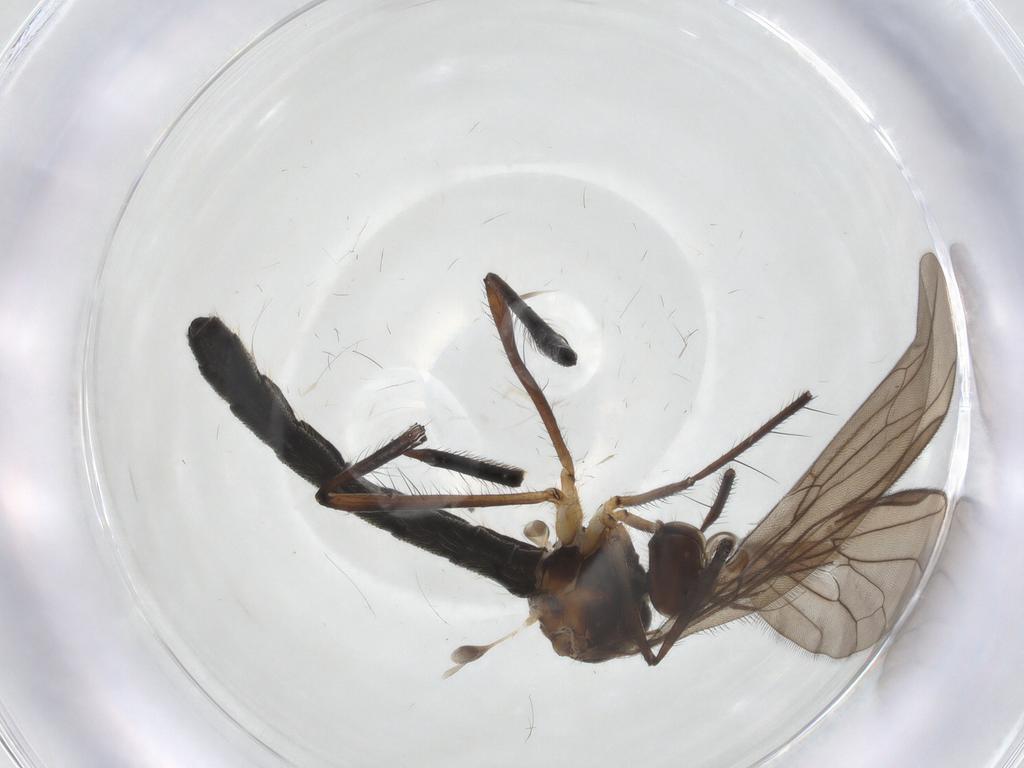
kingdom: Animalia
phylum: Arthropoda
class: Insecta
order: Diptera
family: Hybotidae
